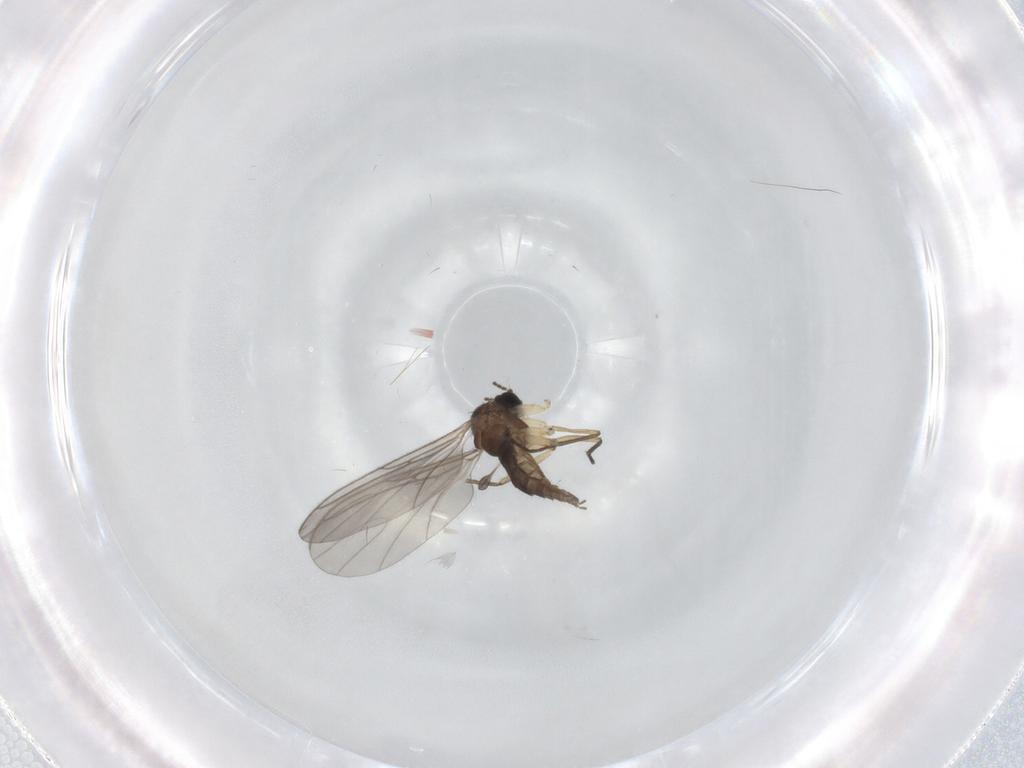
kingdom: Animalia
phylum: Arthropoda
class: Insecta
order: Diptera
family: Sciaridae
